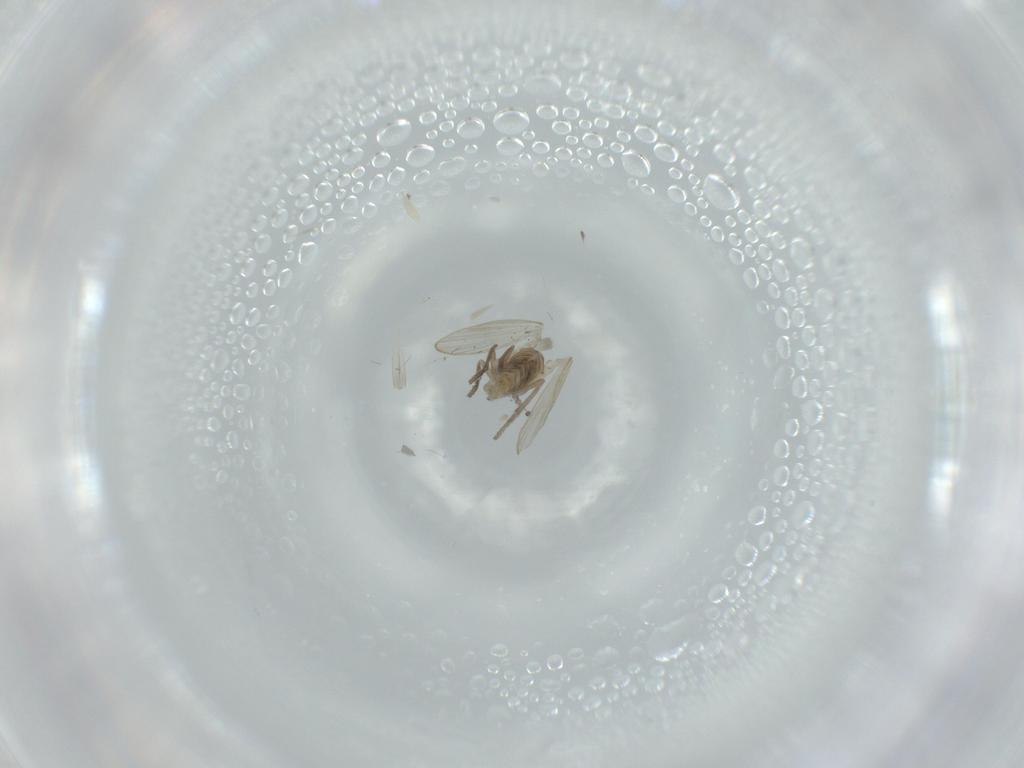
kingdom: Animalia
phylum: Arthropoda
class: Insecta
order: Diptera
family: Psychodidae
